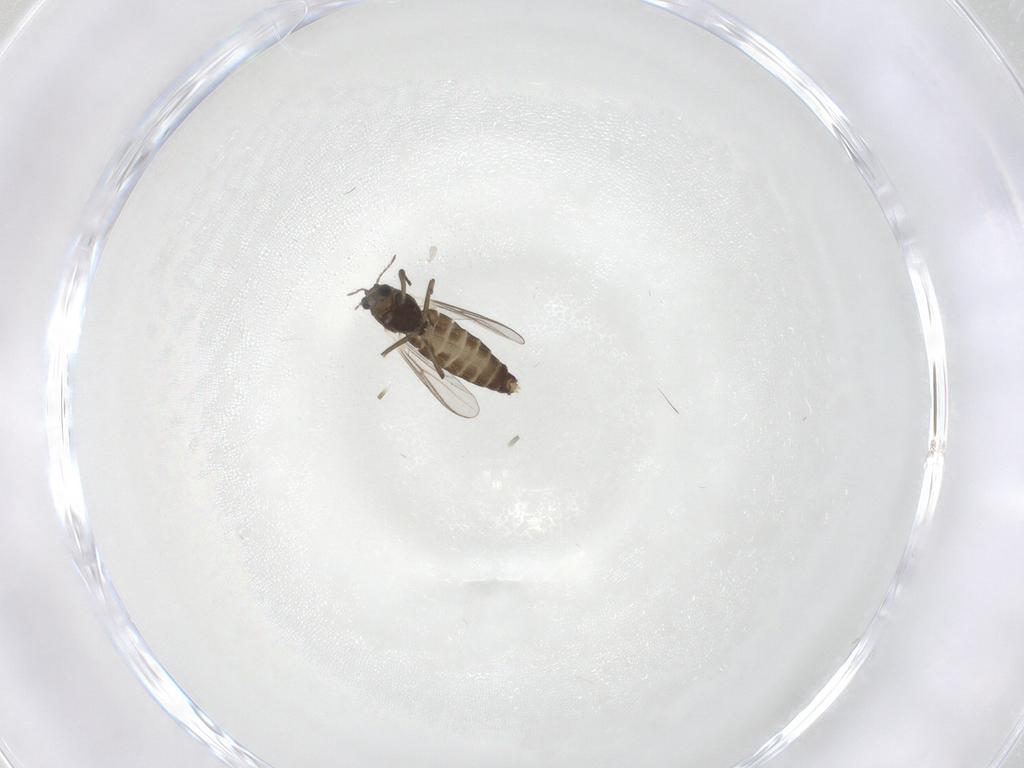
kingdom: Animalia
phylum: Arthropoda
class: Insecta
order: Diptera
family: Chironomidae
